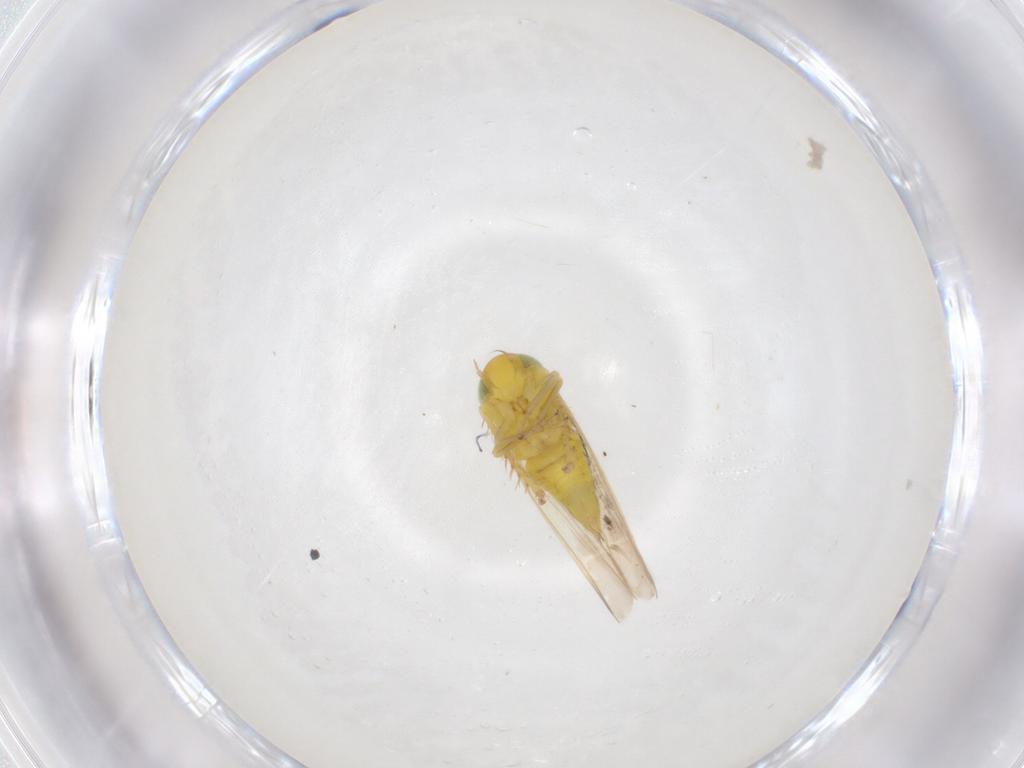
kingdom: Animalia
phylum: Arthropoda
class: Insecta
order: Hemiptera
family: Cicadellidae
